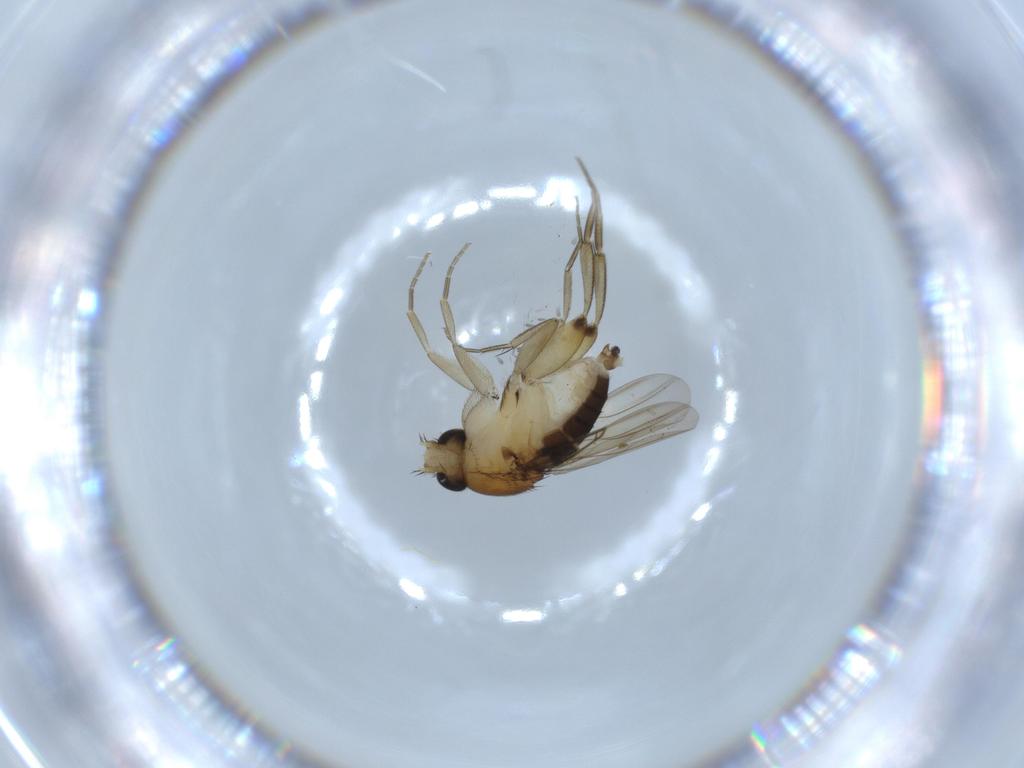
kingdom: Animalia
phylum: Arthropoda
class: Insecta
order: Diptera
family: Phoridae
